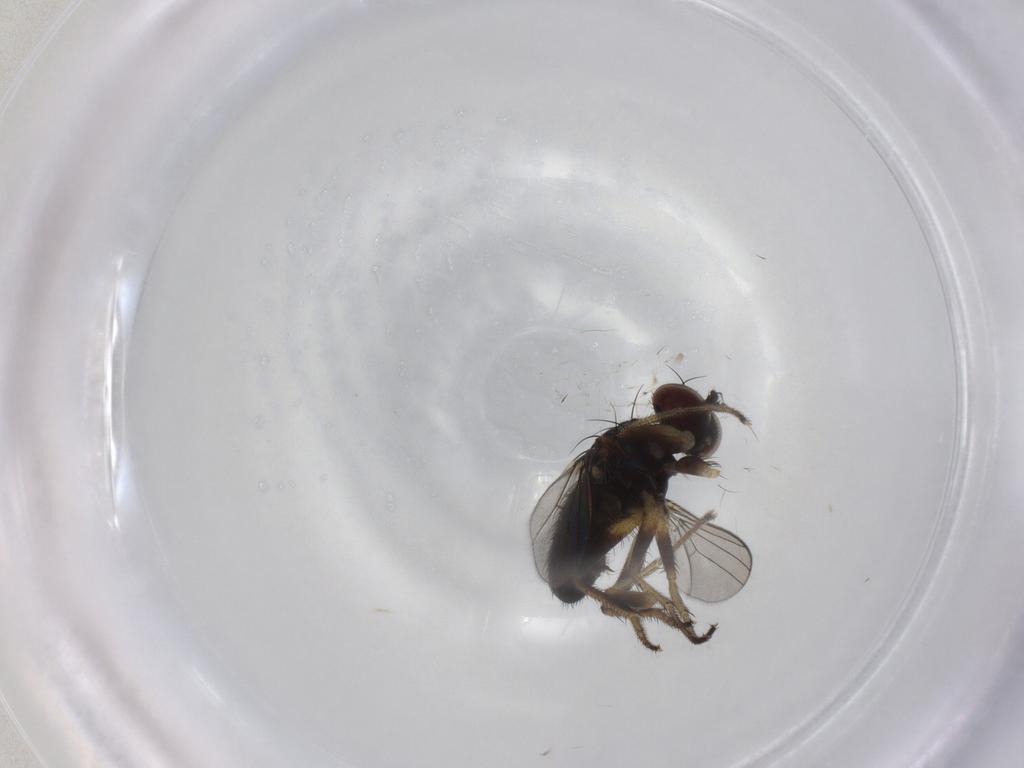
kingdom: Animalia
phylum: Arthropoda
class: Insecta
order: Diptera
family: Dolichopodidae
